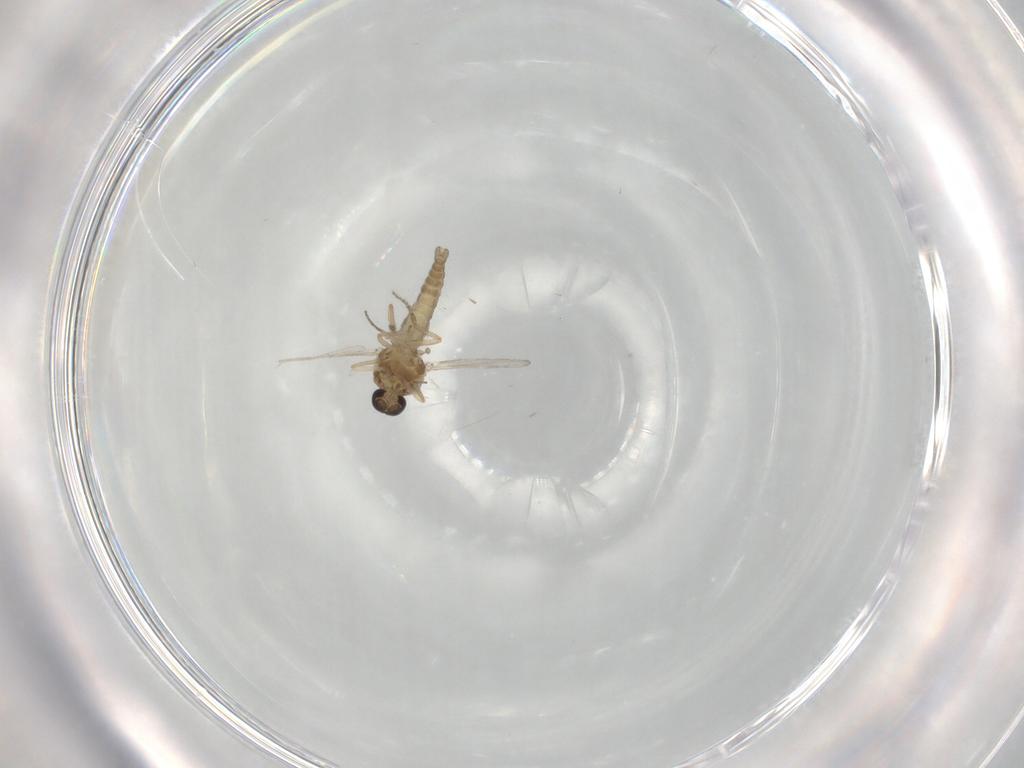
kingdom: Animalia
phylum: Arthropoda
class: Insecta
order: Diptera
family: Ceratopogonidae
